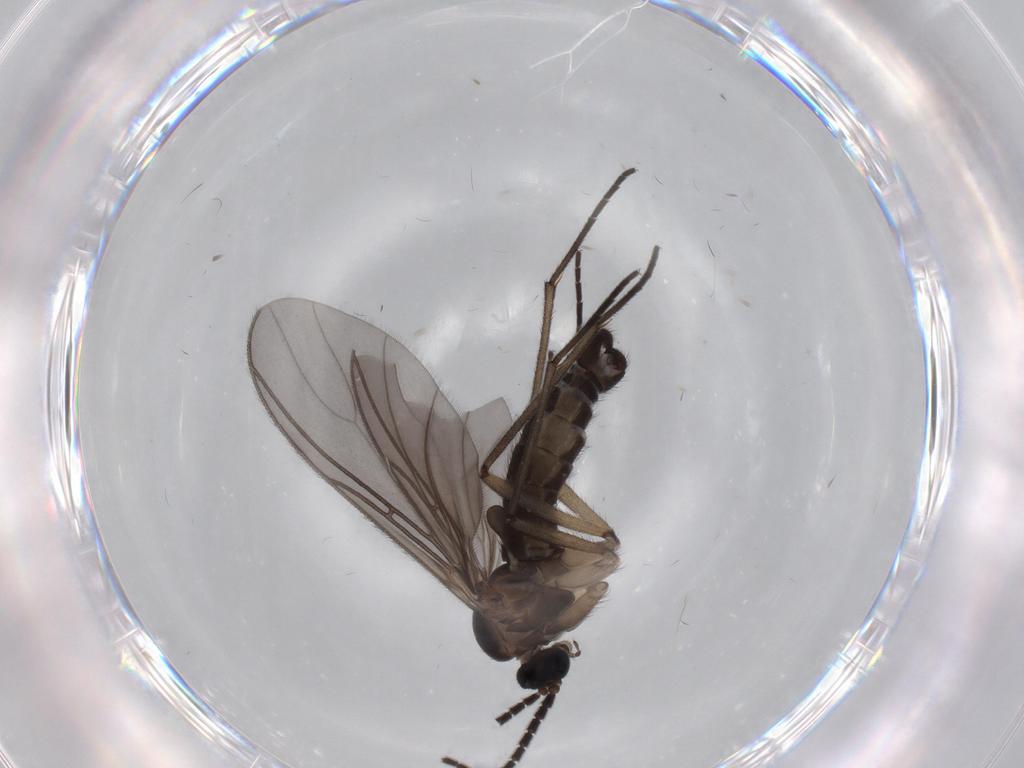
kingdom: Animalia
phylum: Arthropoda
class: Insecta
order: Diptera
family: Sciaridae
